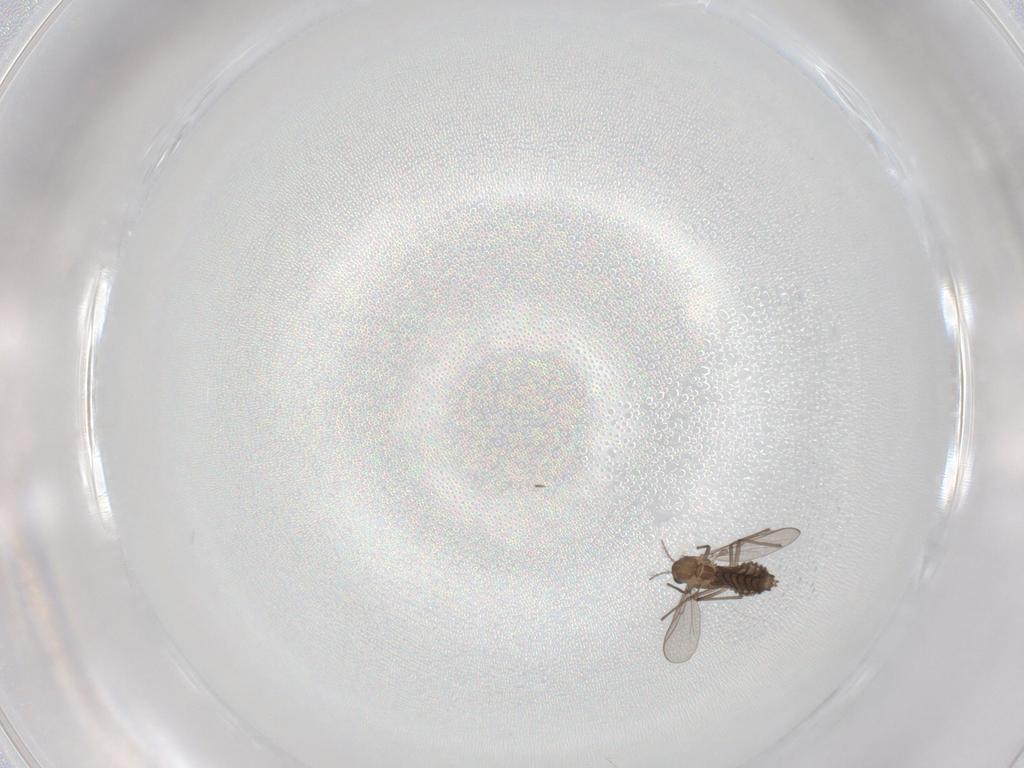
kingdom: Animalia
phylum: Arthropoda
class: Insecta
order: Diptera
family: Chironomidae
